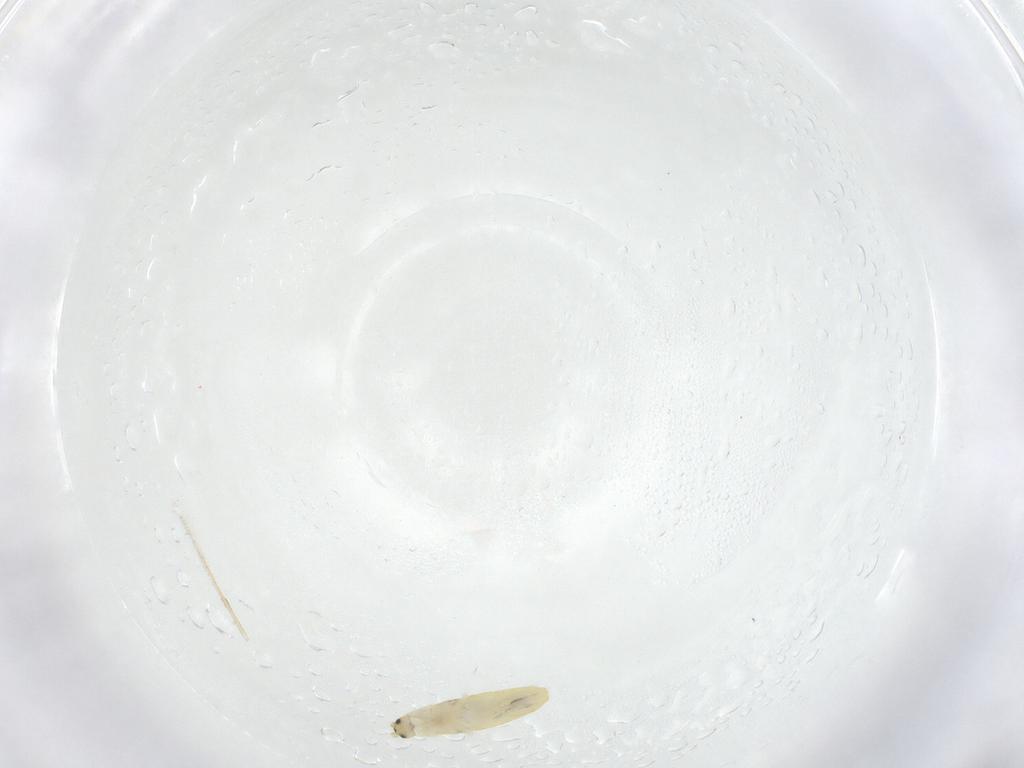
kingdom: Animalia
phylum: Arthropoda
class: Collembola
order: Entomobryomorpha
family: Entomobryidae
